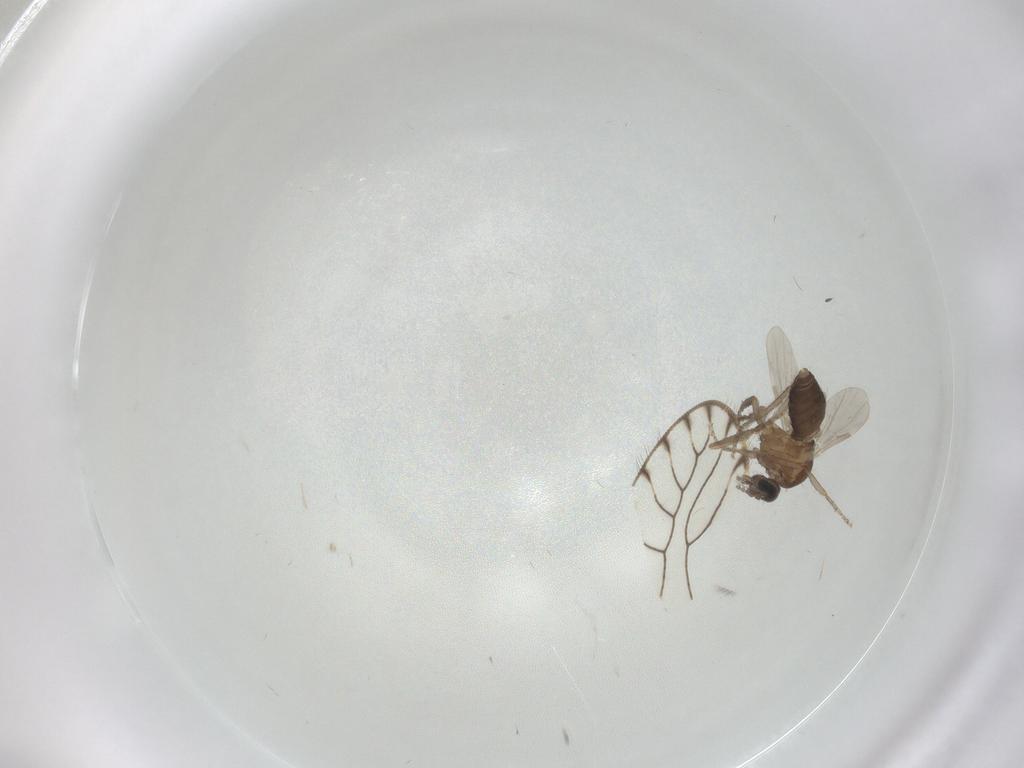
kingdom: Animalia
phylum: Arthropoda
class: Insecta
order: Diptera
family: Ceratopogonidae
